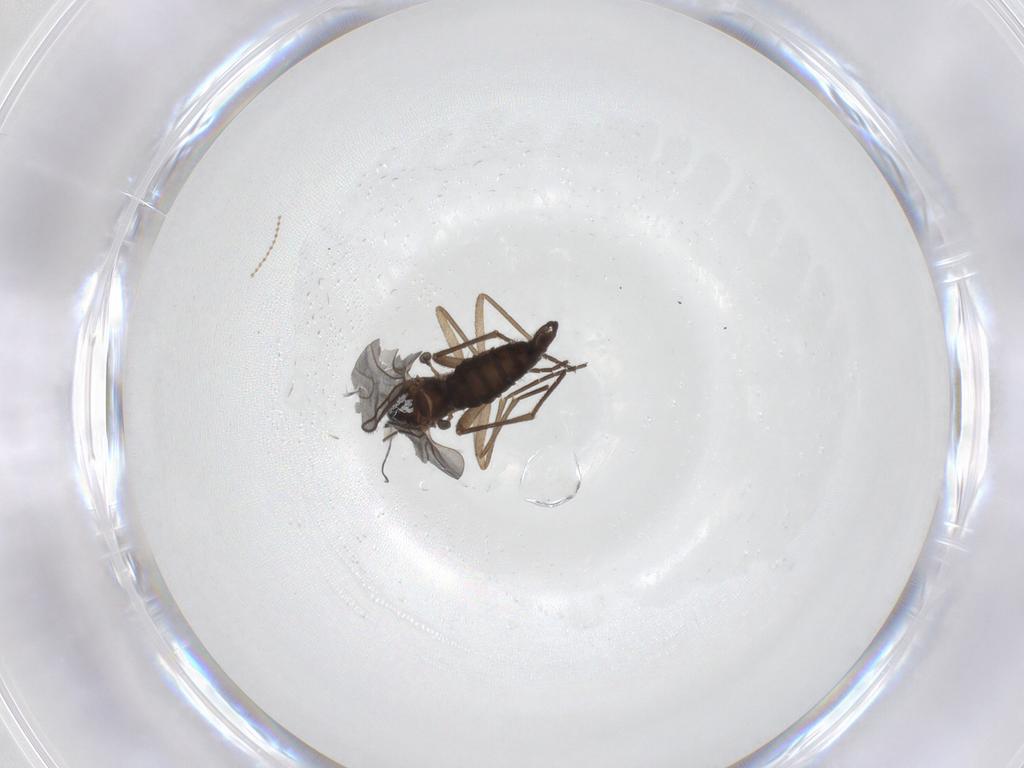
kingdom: Animalia
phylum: Arthropoda
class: Insecta
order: Diptera
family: Cecidomyiidae
